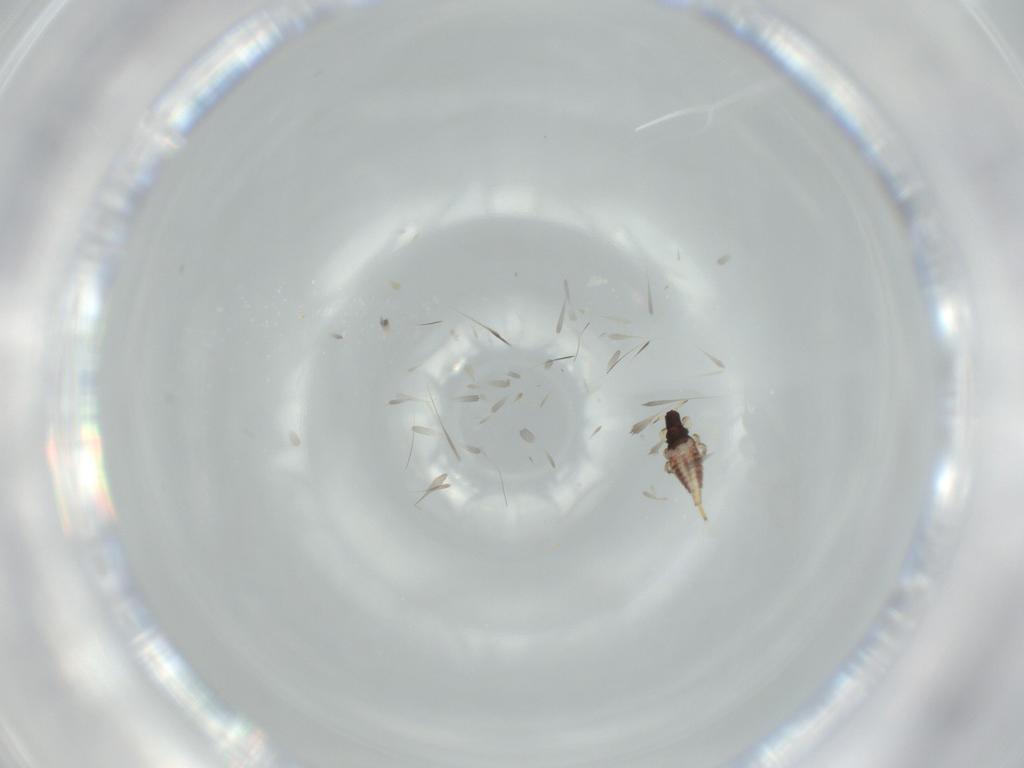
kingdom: Animalia
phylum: Arthropoda
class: Insecta
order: Thysanoptera
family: Phlaeothripidae
